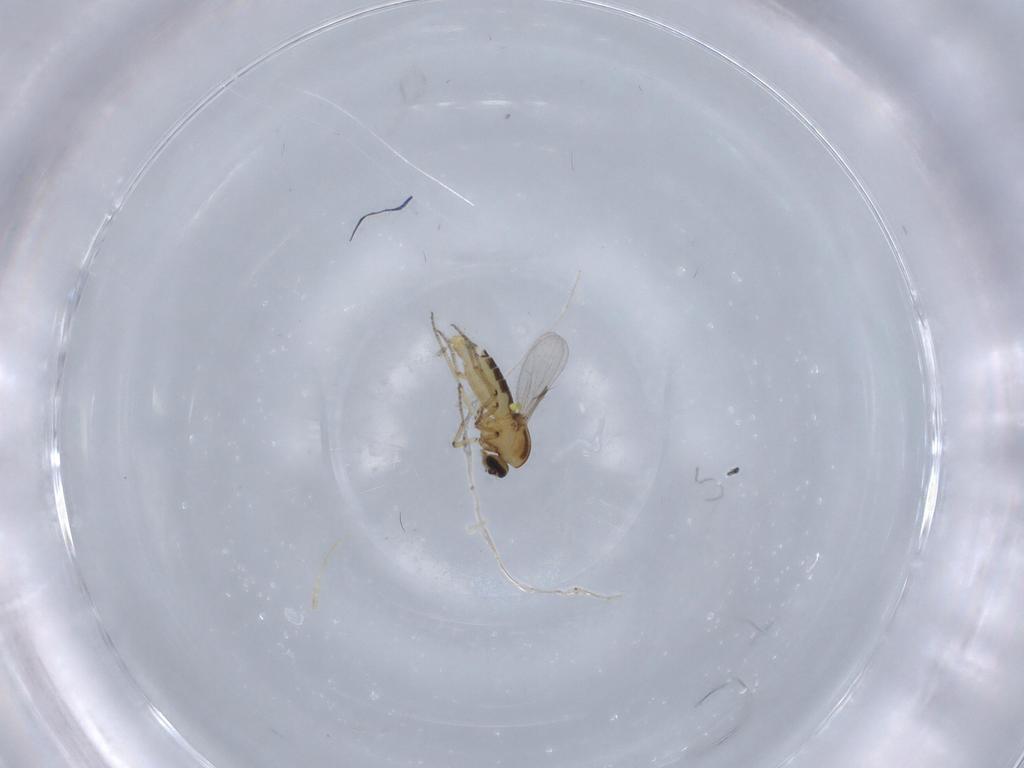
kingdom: Animalia
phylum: Arthropoda
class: Insecta
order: Diptera
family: Ceratopogonidae
